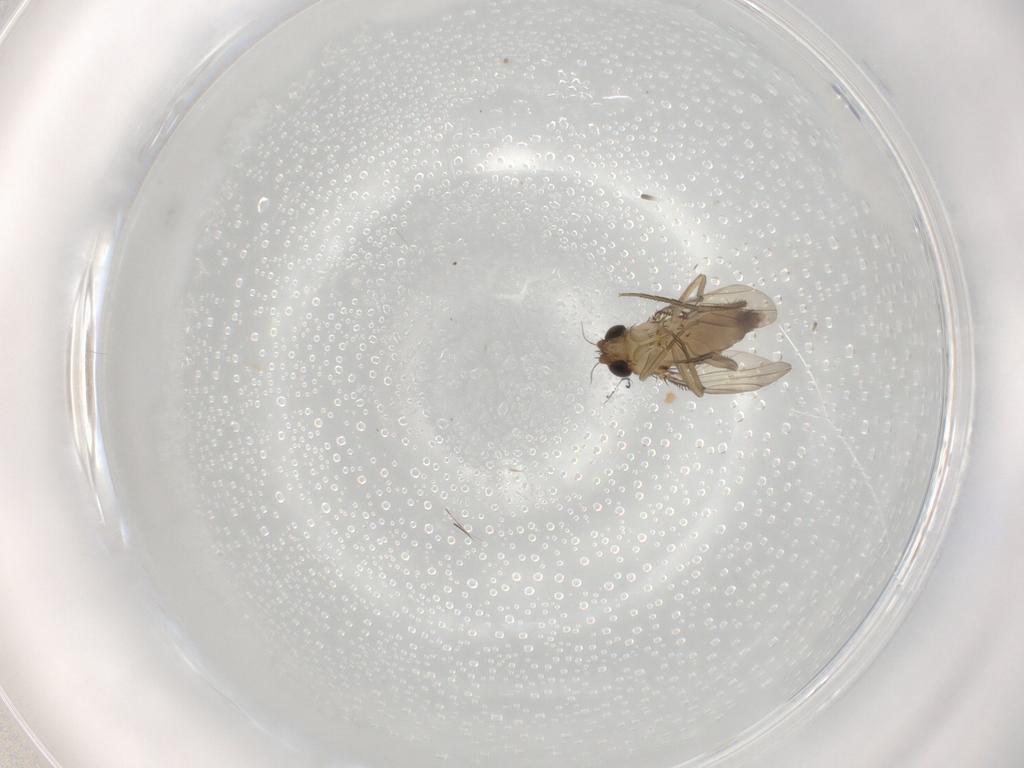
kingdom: Animalia
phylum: Arthropoda
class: Insecta
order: Diptera
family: Phoridae
